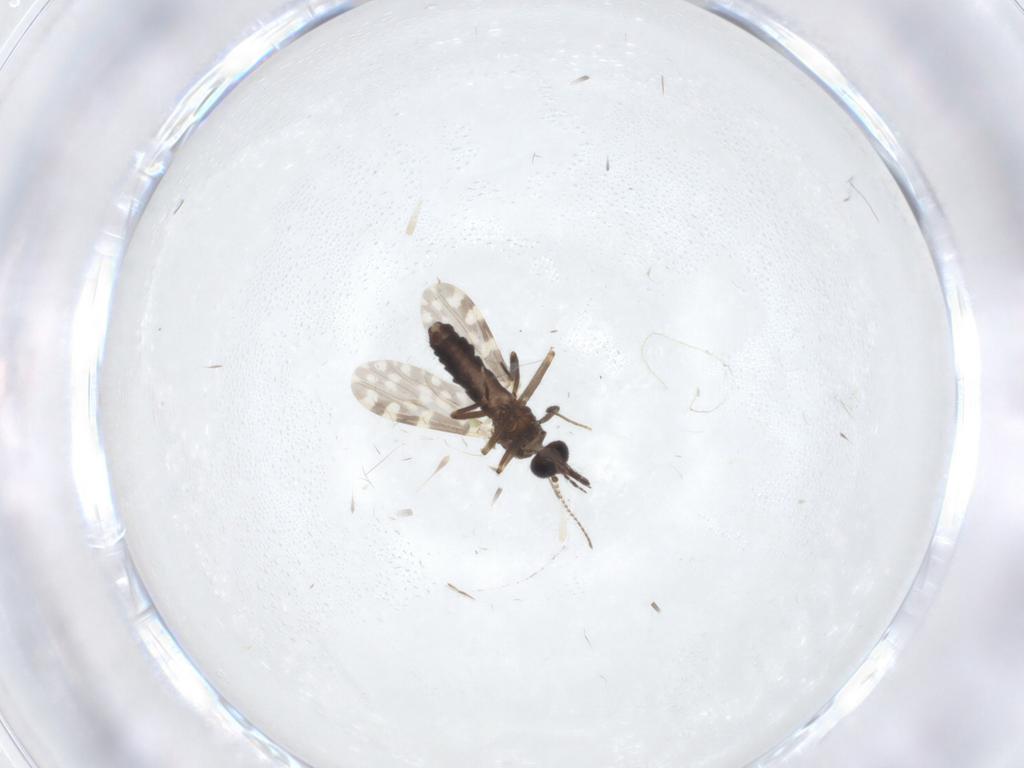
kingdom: Animalia
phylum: Arthropoda
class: Insecta
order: Diptera
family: Ceratopogonidae
